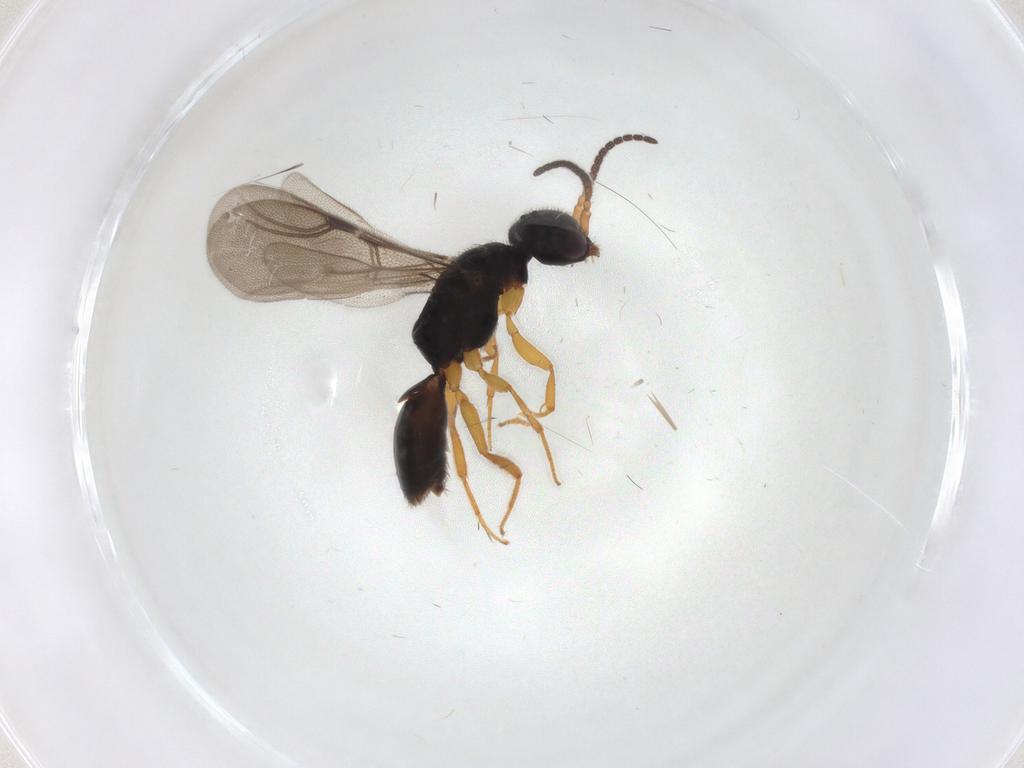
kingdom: Animalia
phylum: Arthropoda
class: Insecta
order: Hymenoptera
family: Bethylidae
